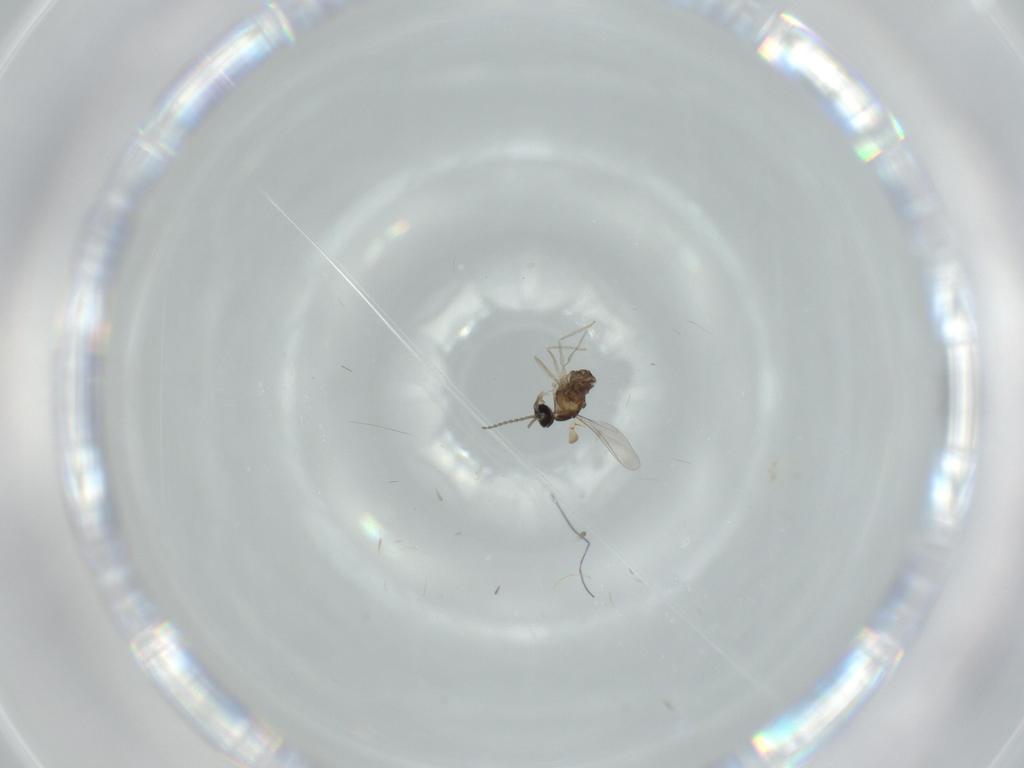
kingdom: Animalia
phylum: Arthropoda
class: Insecta
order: Diptera
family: Cecidomyiidae
